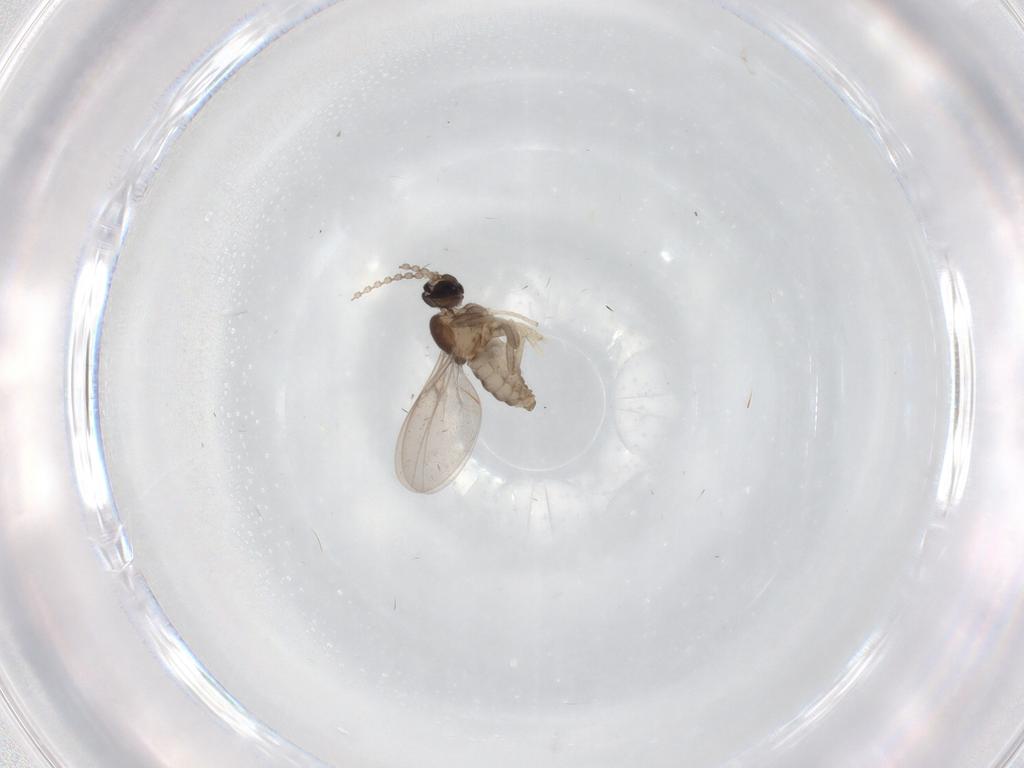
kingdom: Animalia
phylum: Arthropoda
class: Insecta
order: Diptera
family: Cecidomyiidae
